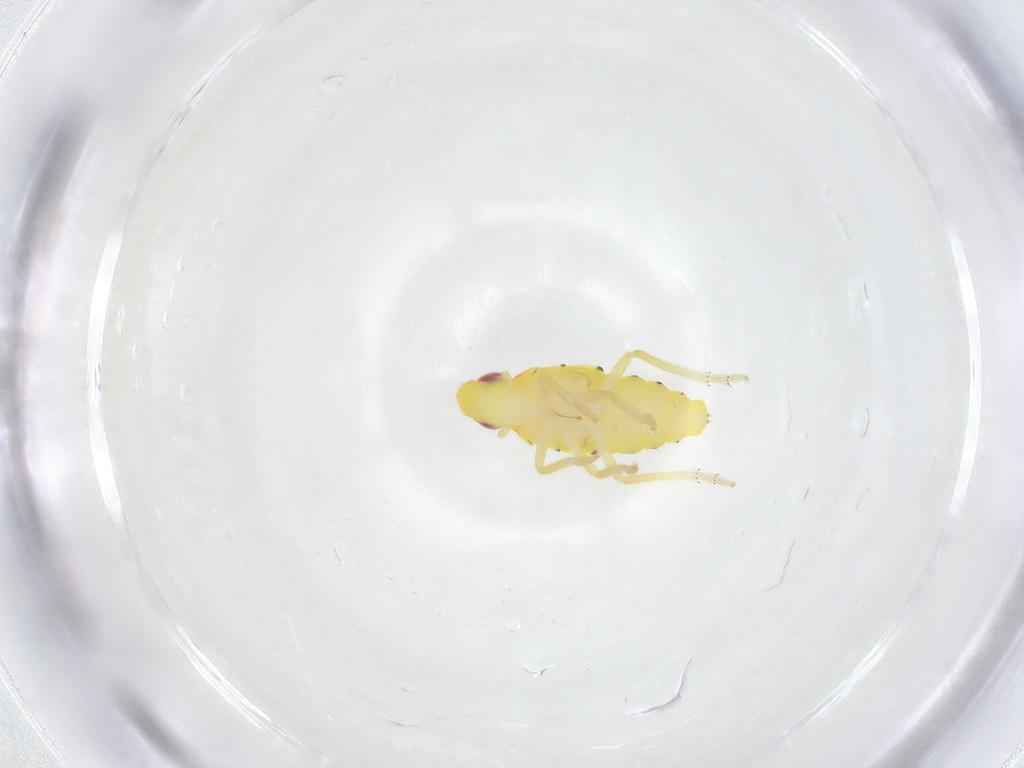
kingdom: Animalia
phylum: Arthropoda
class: Insecta
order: Hemiptera
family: Tropiduchidae
